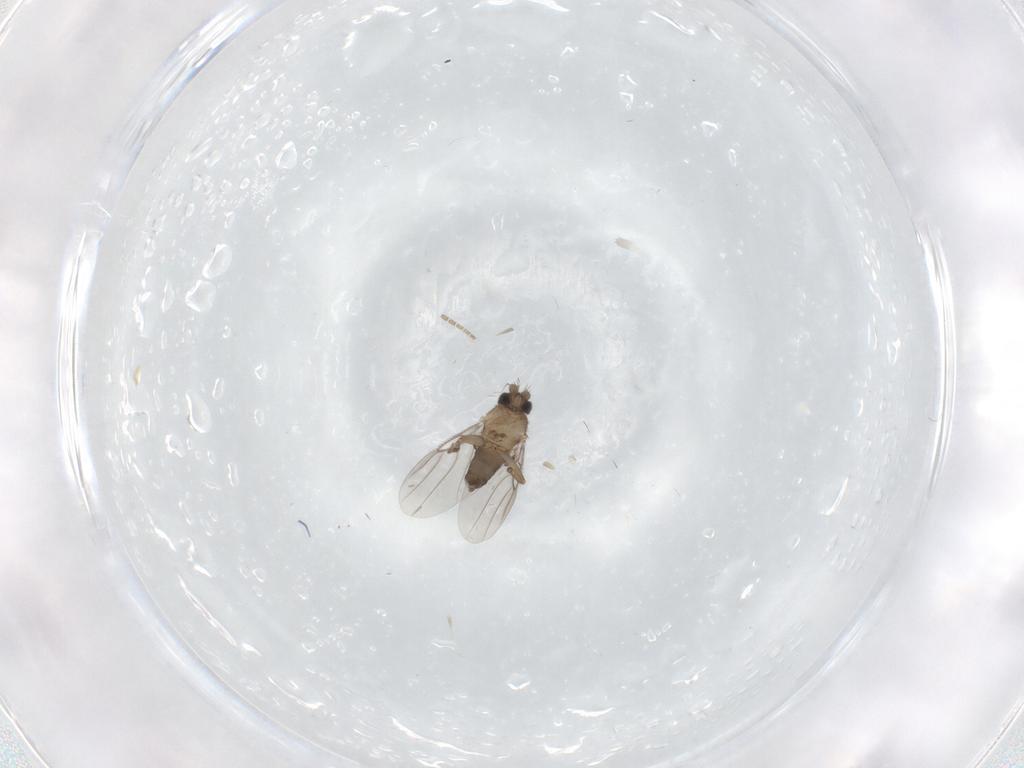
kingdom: Animalia
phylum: Arthropoda
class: Insecta
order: Diptera
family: Sciaridae
